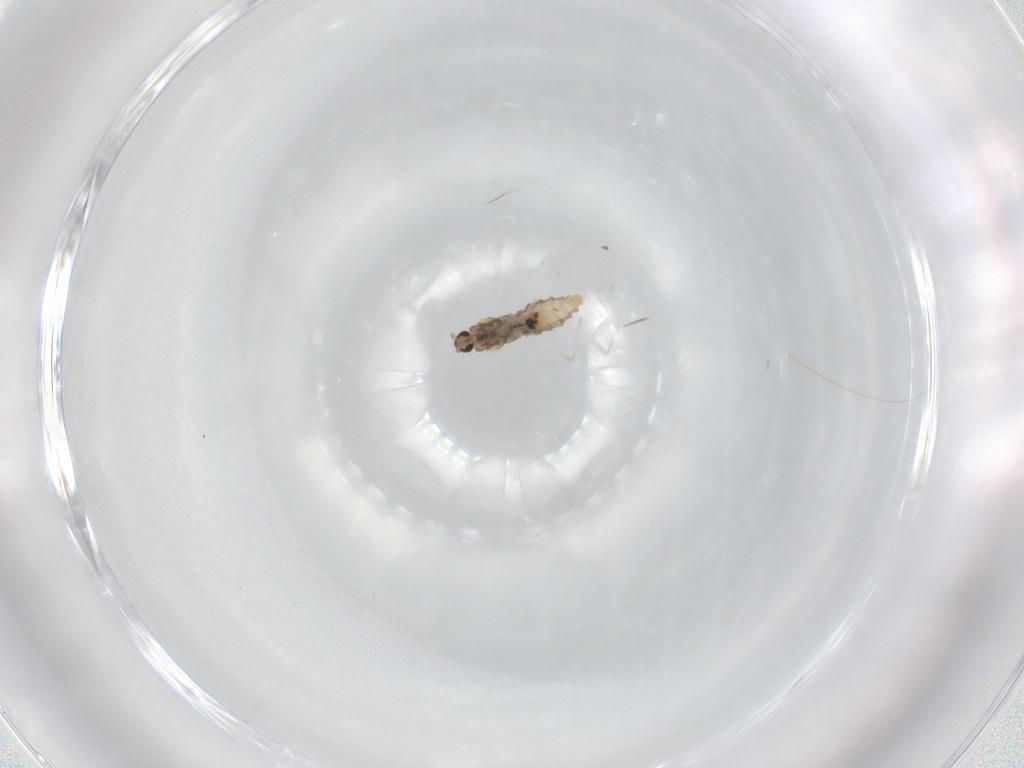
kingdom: Animalia
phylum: Arthropoda
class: Insecta
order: Diptera
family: Cecidomyiidae
